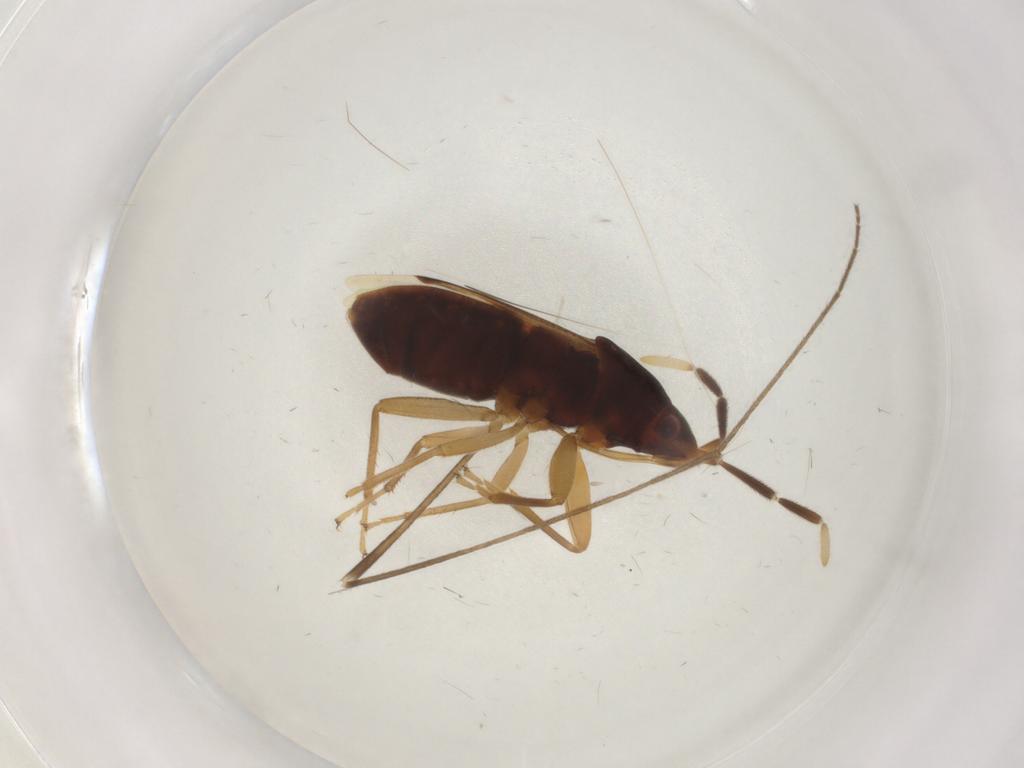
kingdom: Animalia
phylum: Arthropoda
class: Insecta
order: Hemiptera
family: Rhyparochromidae
